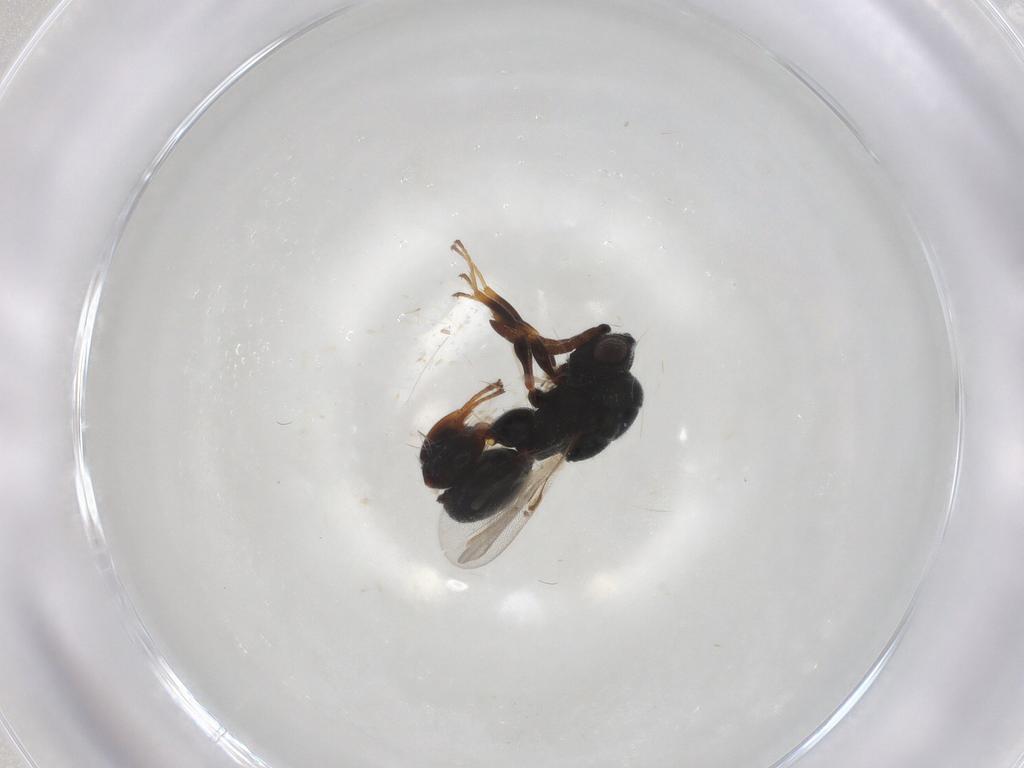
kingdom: Animalia
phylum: Arthropoda
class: Insecta
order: Hymenoptera
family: Chalcididae
